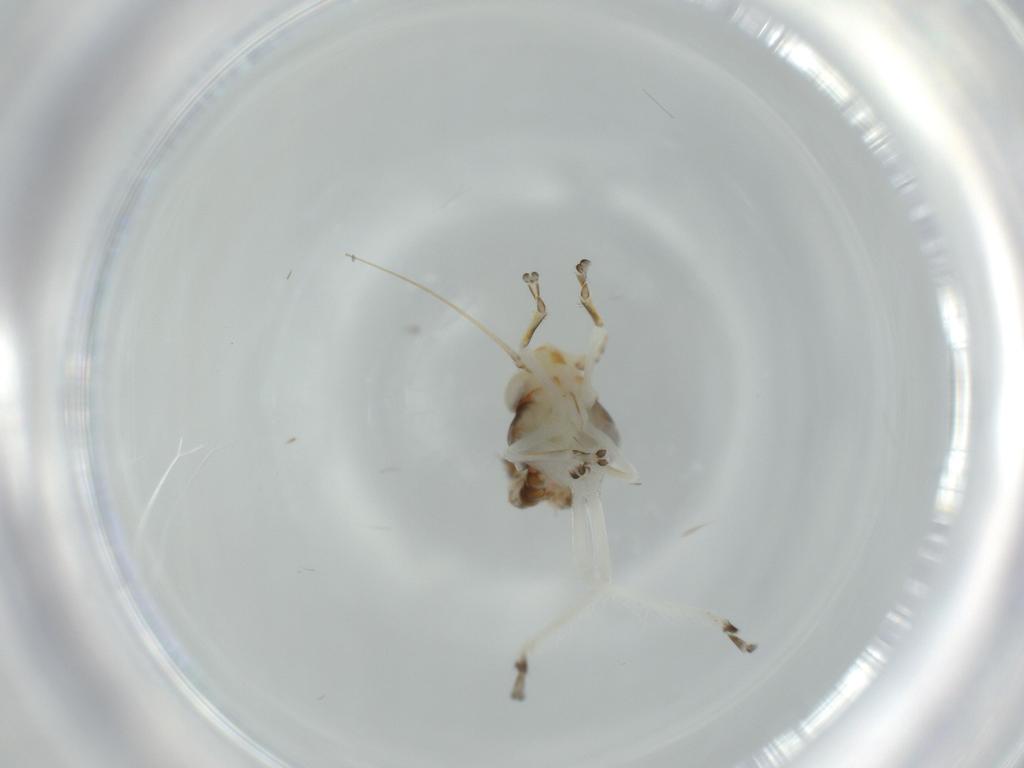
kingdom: Animalia
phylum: Arthropoda
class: Insecta
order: Hemiptera
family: Cicadellidae
